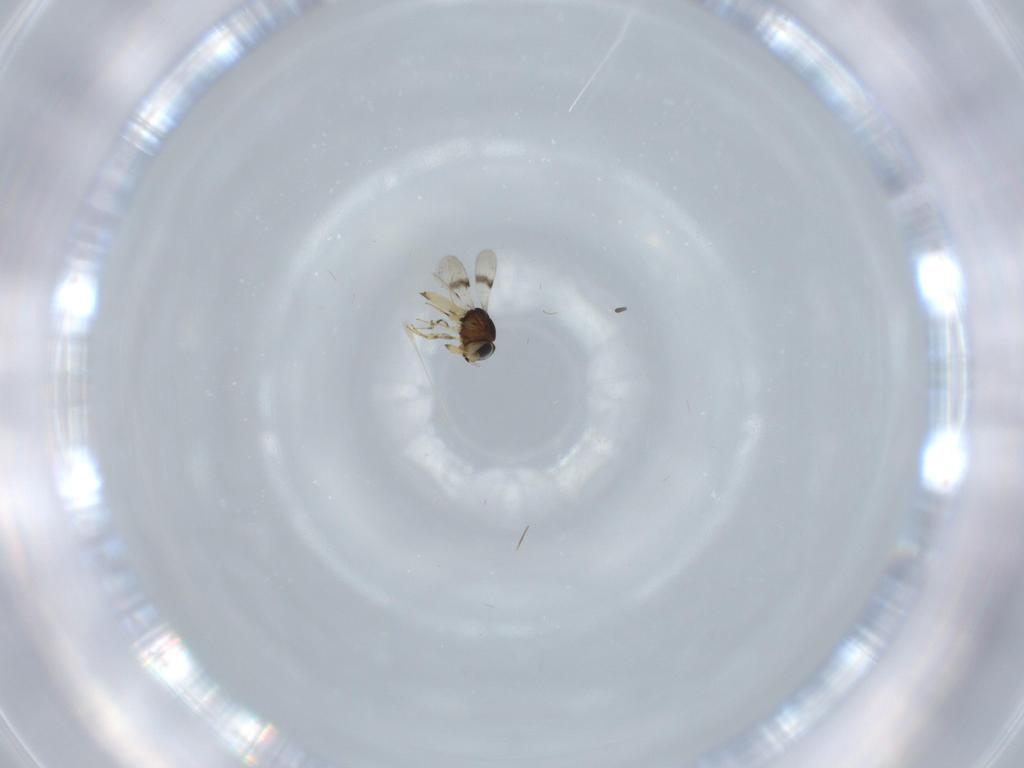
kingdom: Animalia
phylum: Arthropoda
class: Insecta
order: Hymenoptera
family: Scelionidae
